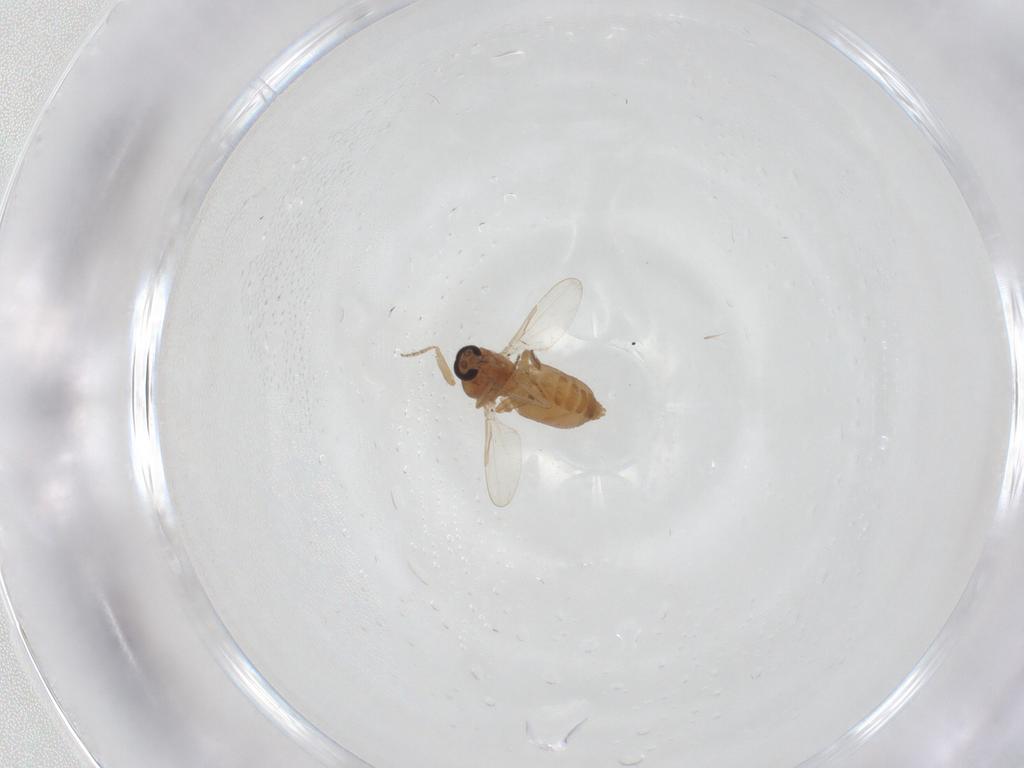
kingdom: Animalia
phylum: Arthropoda
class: Insecta
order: Diptera
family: Ceratopogonidae
